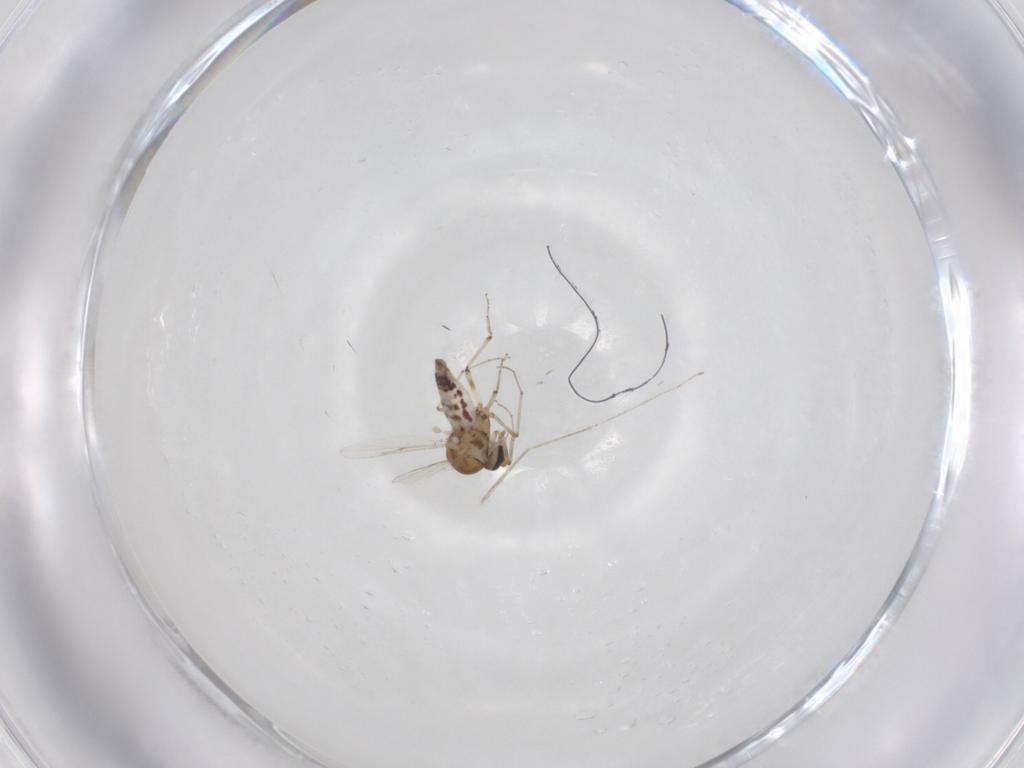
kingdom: Animalia
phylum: Arthropoda
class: Insecta
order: Diptera
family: Ceratopogonidae
